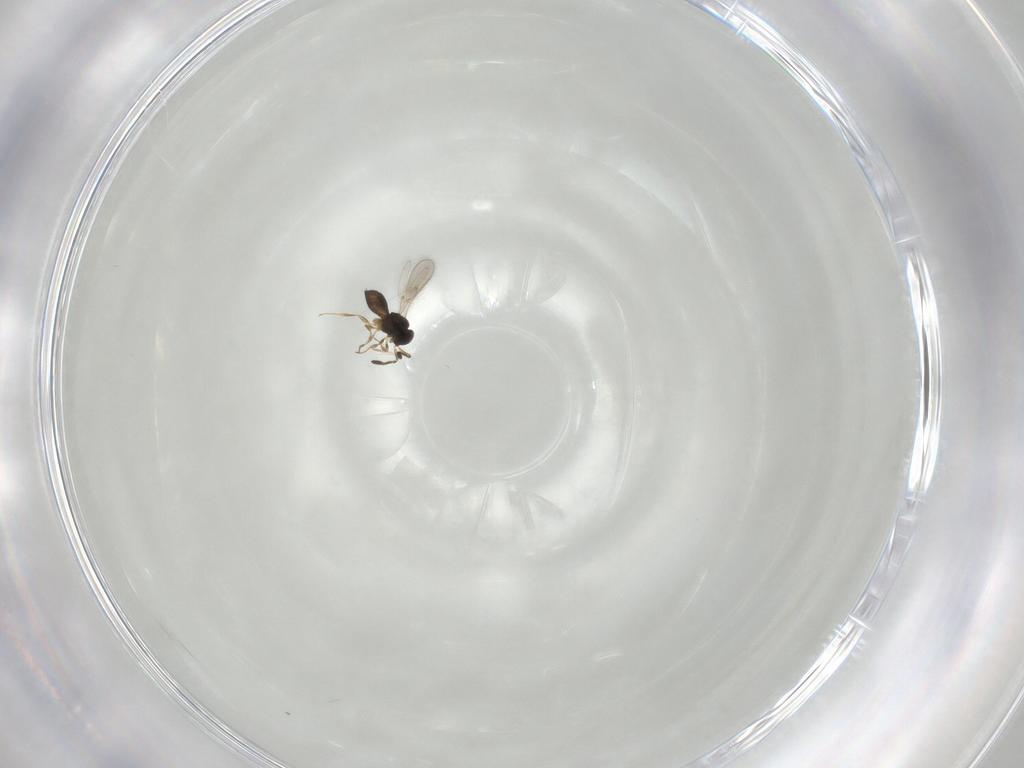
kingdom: Animalia
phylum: Arthropoda
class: Insecta
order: Hymenoptera
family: Scelionidae
